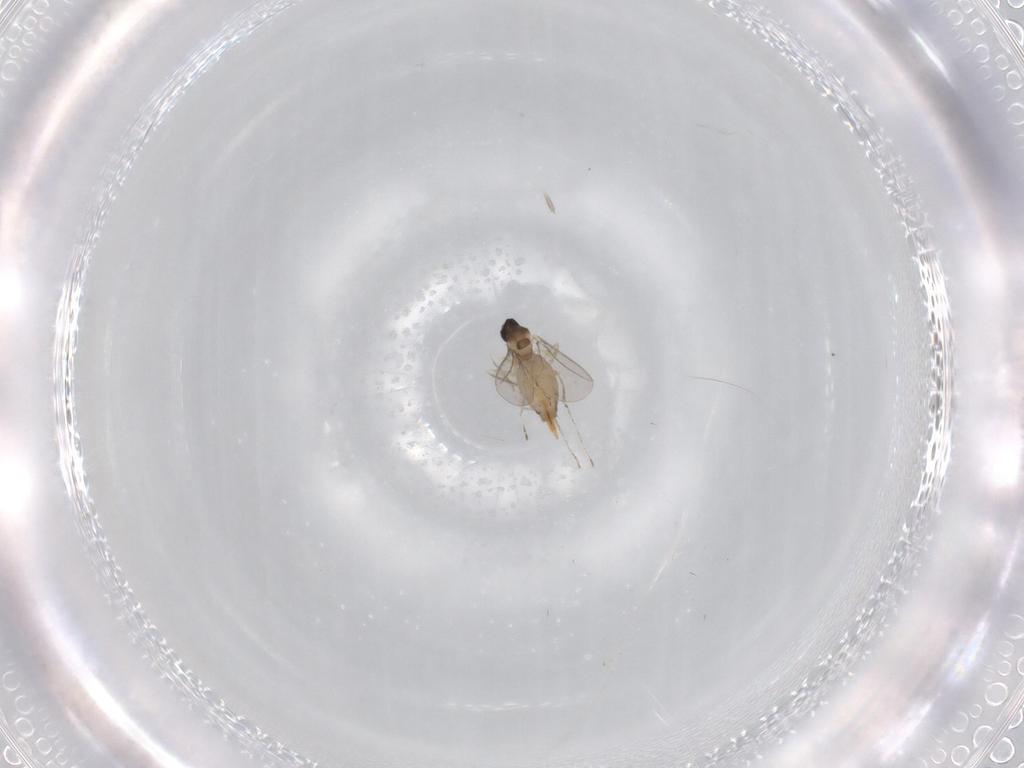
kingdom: Animalia
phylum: Arthropoda
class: Insecta
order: Diptera
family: Cecidomyiidae
